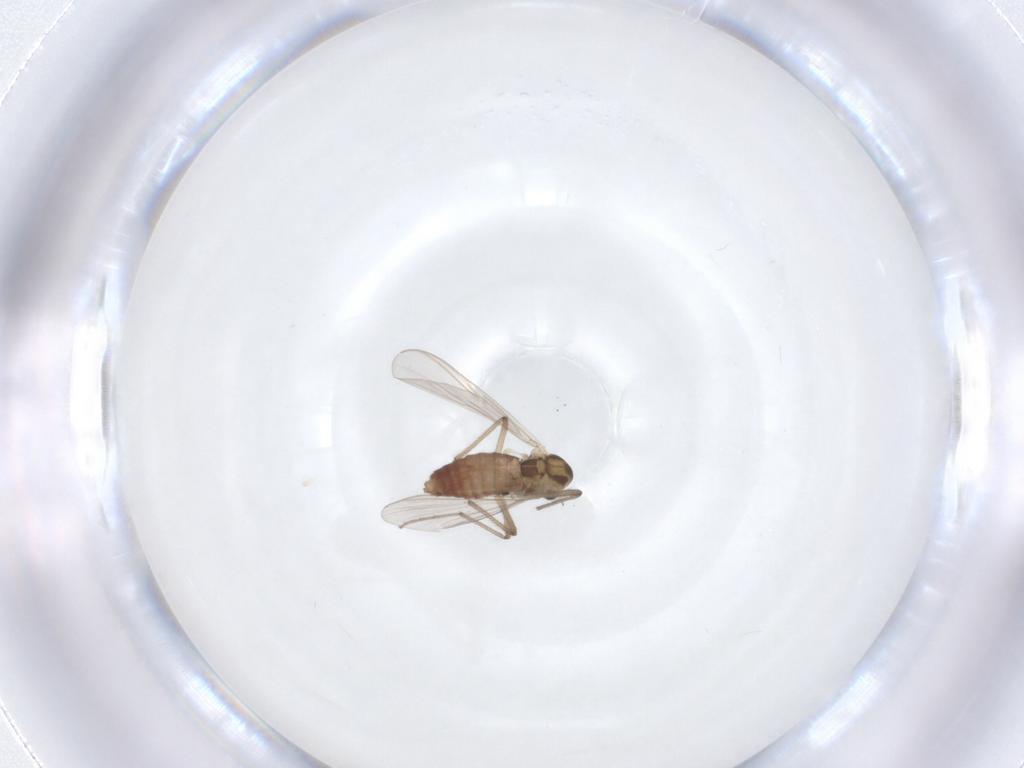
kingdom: Animalia
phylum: Arthropoda
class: Insecta
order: Diptera
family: Mycetophilidae
